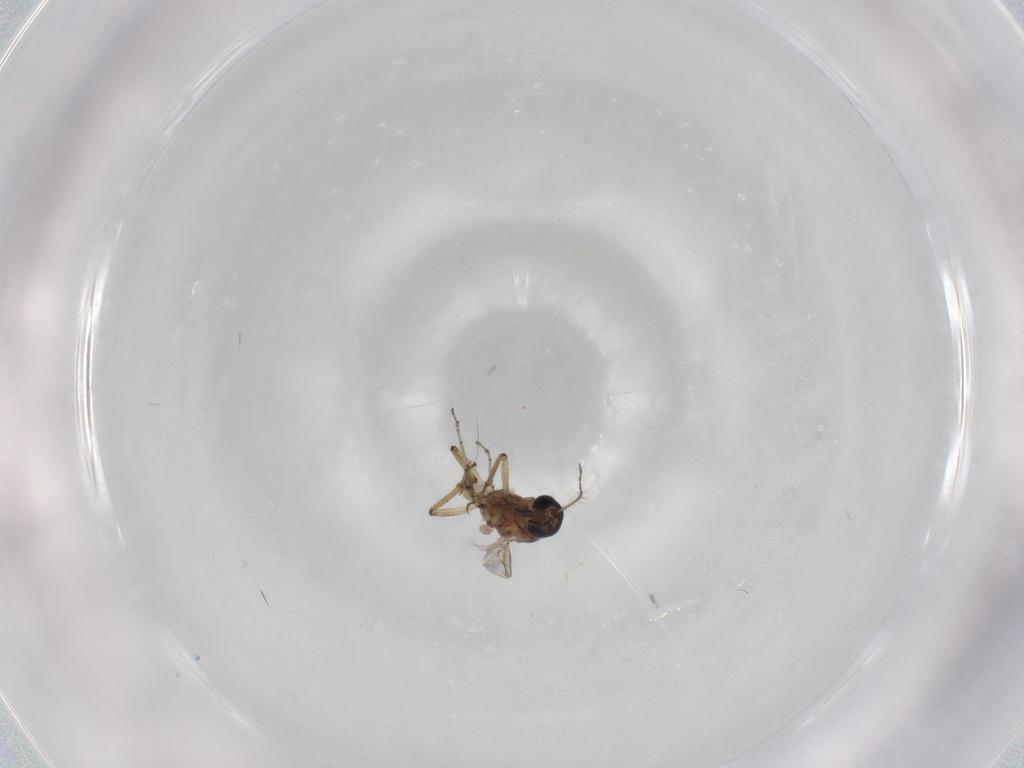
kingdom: Animalia
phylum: Arthropoda
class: Insecta
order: Diptera
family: Ceratopogonidae
